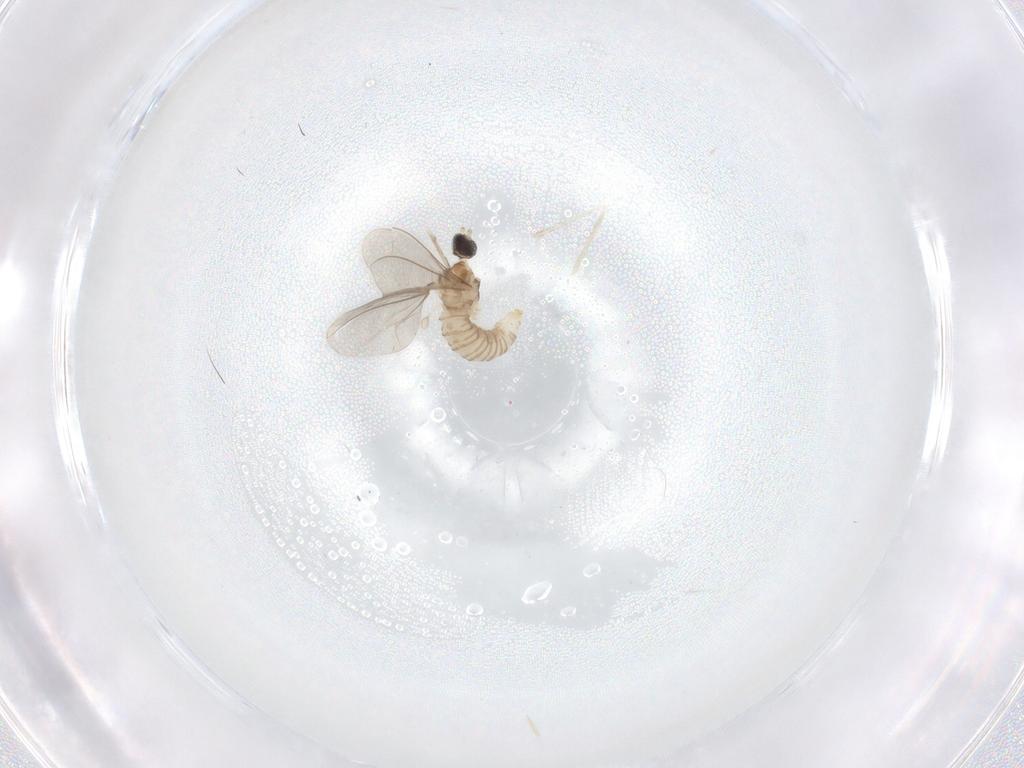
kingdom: Animalia
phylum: Arthropoda
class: Insecta
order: Diptera
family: Cecidomyiidae
